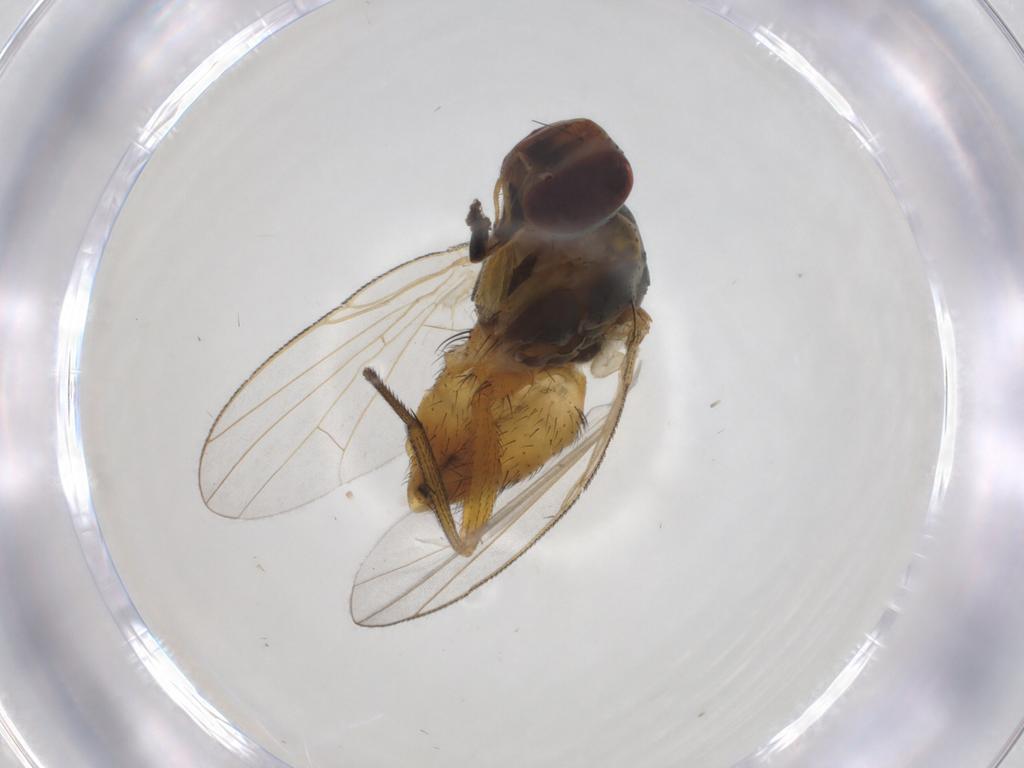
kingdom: Animalia
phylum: Arthropoda
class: Insecta
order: Diptera
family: Muscidae
